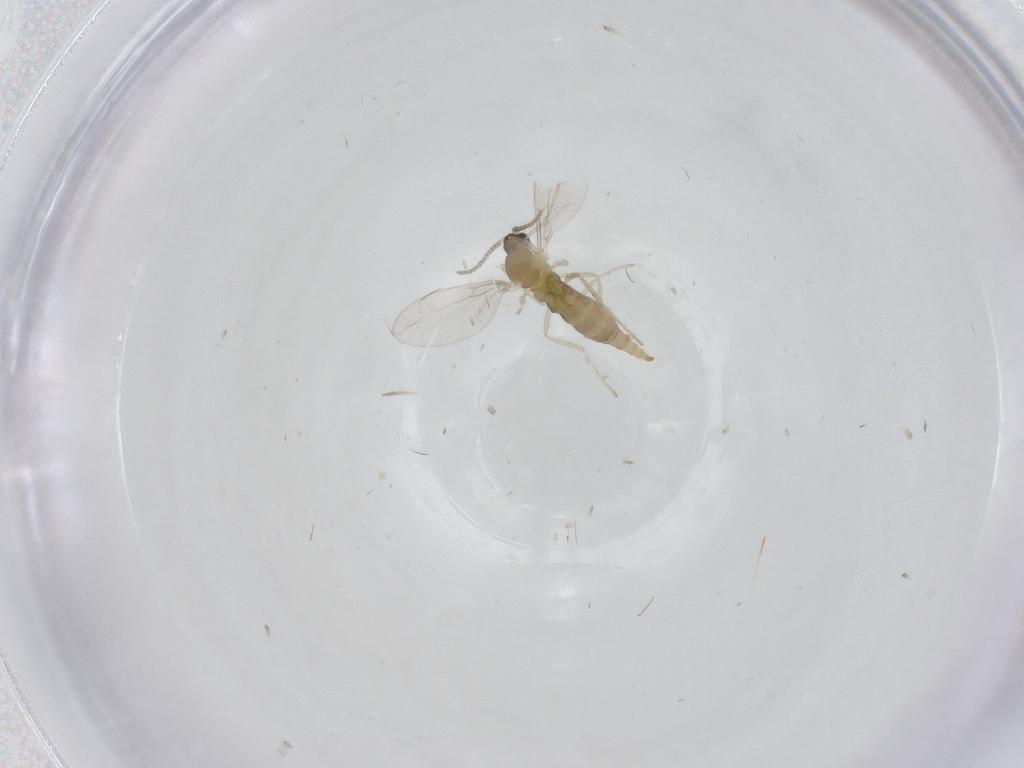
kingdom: Animalia
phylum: Arthropoda
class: Insecta
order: Diptera
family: Cecidomyiidae
